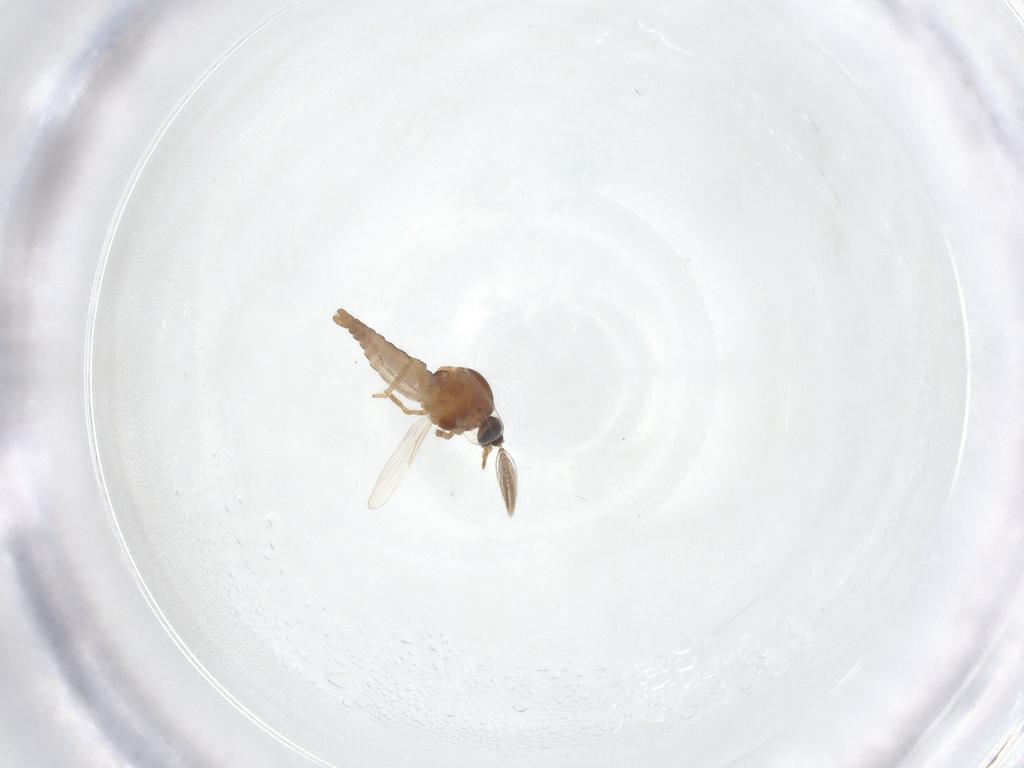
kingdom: Animalia
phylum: Arthropoda
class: Insecta
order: Diptera
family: Ceratopogonidae
